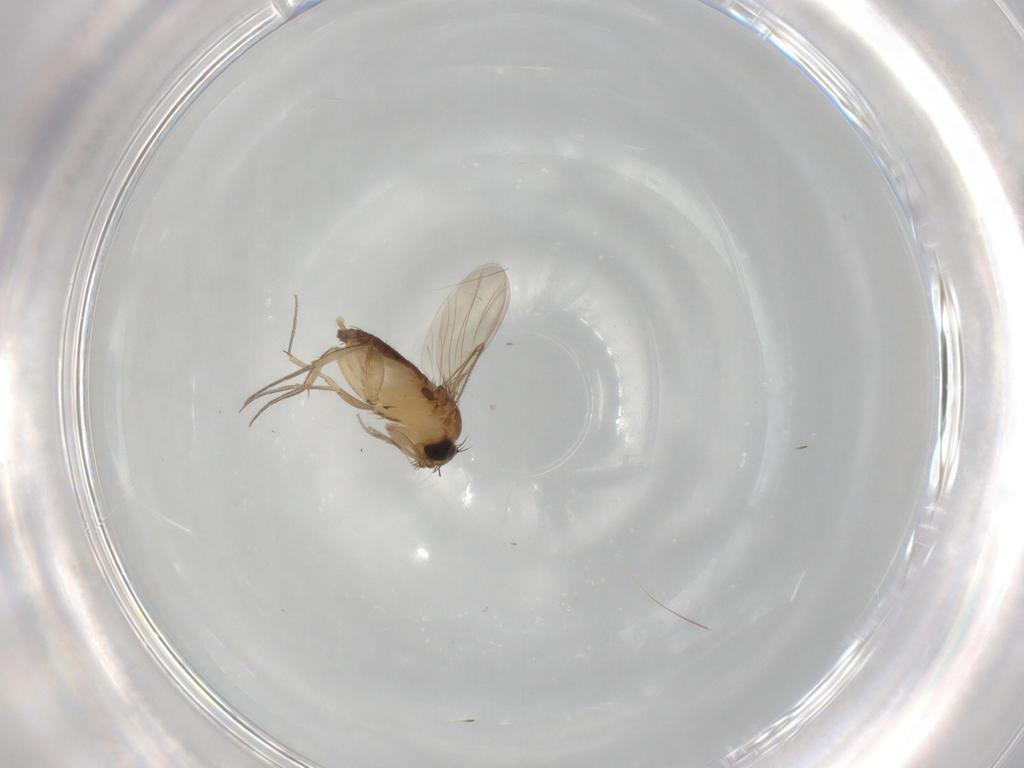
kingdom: Animalia
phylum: Arthropoda
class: Insecta
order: Diptera
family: Phoridae
